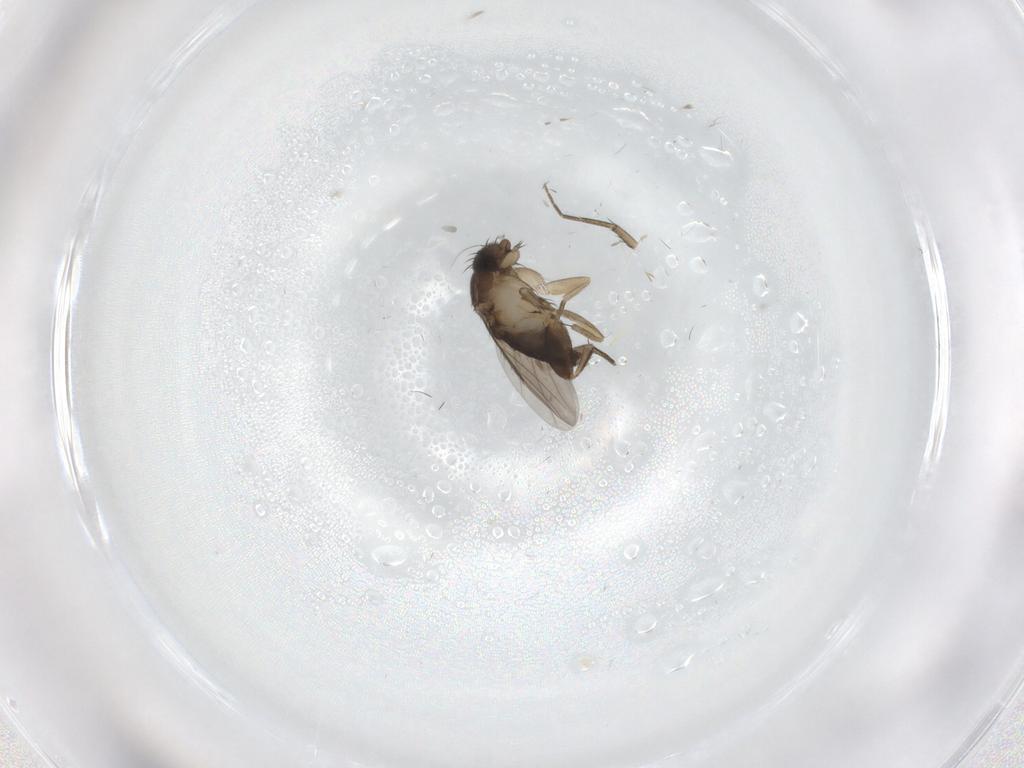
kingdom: Animalia
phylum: Arthropoda
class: Insecta
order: Diptera
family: Phoridae
